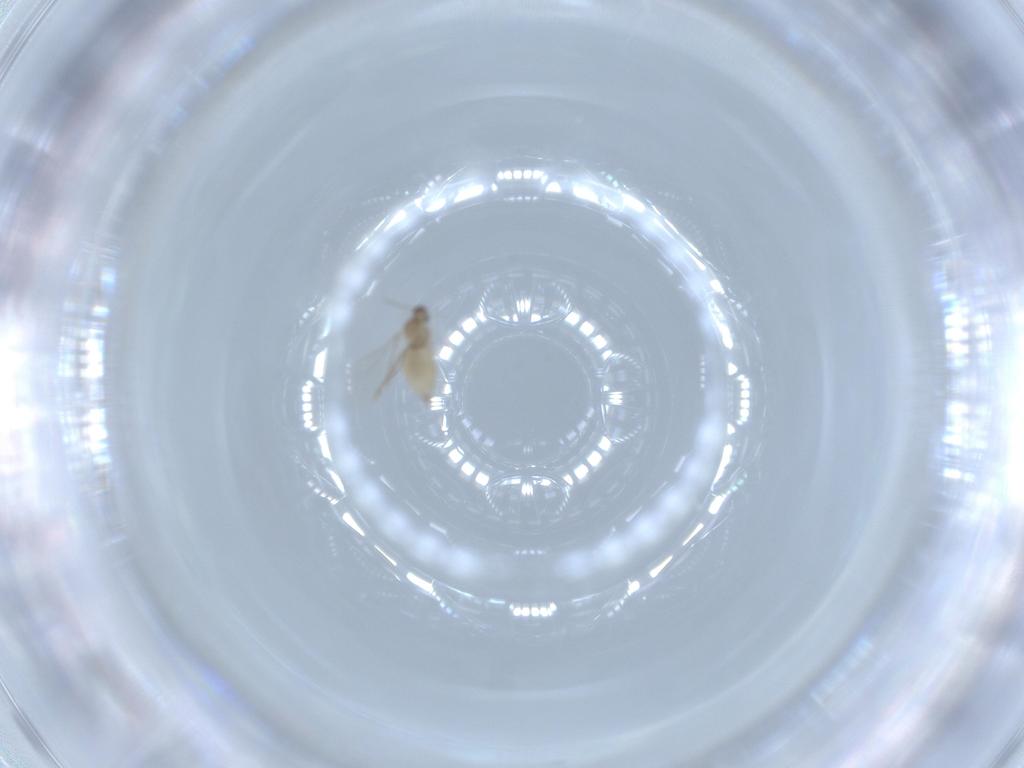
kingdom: Animalia
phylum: Arthropoda
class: Insecta
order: Diptera
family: Cecidomyiidae
